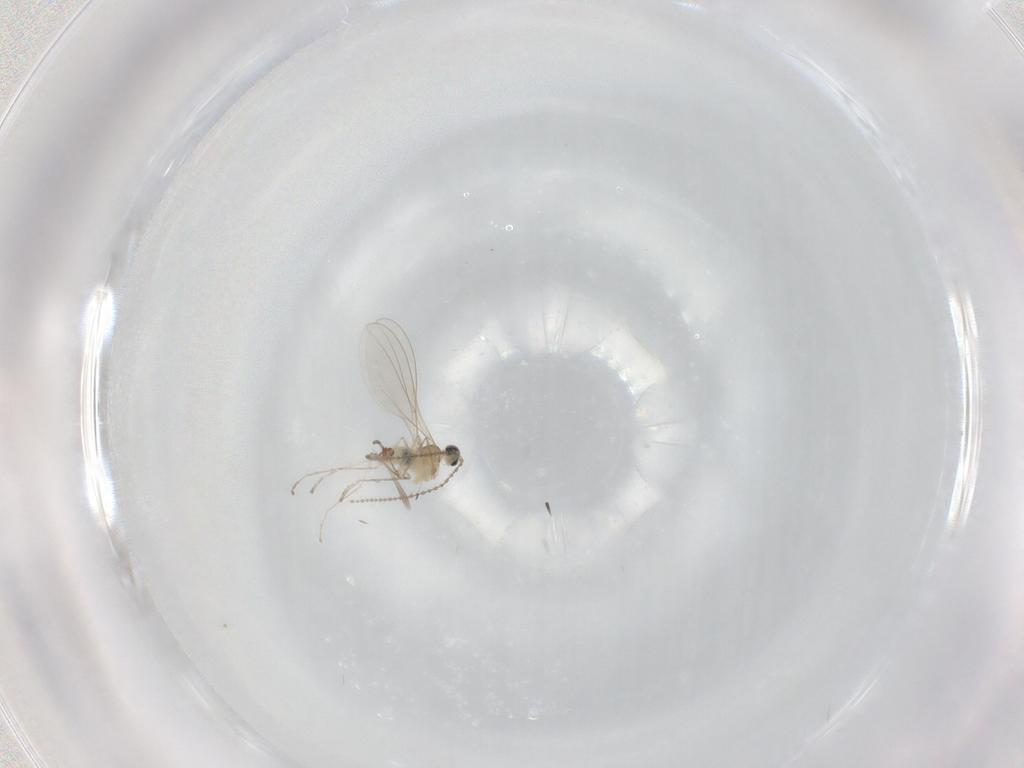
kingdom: Animalia
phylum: Arthropoda
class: Insecta
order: Diptera
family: Cecidomyiidae
